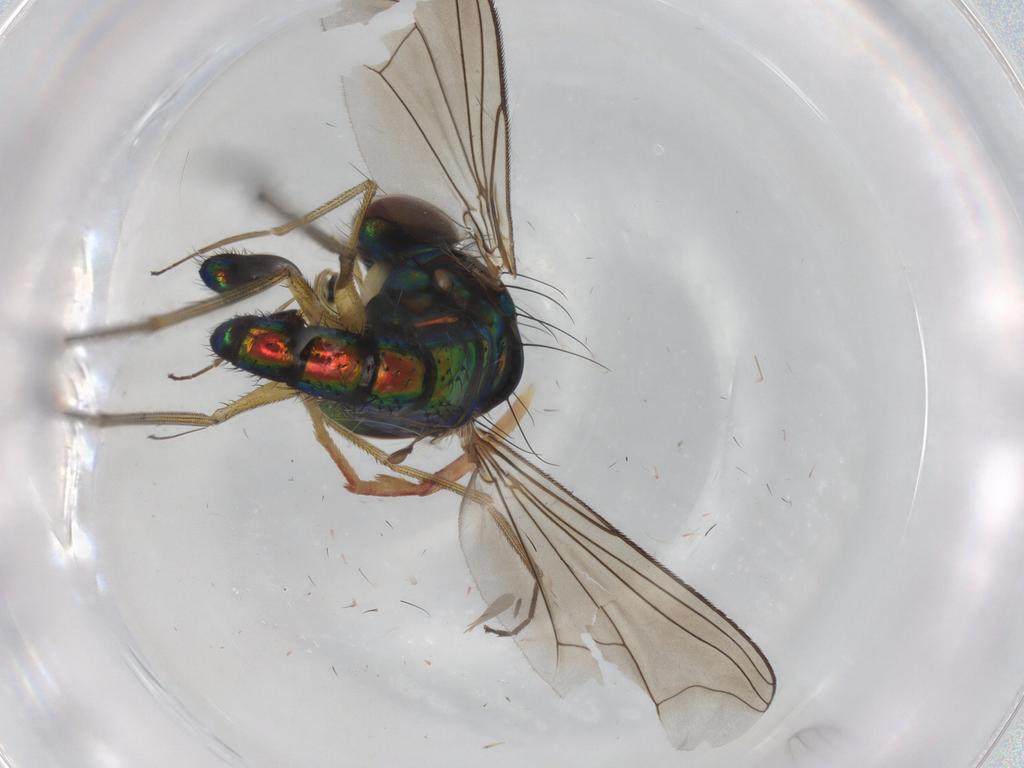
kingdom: Animalia
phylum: Arthropoda
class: Insecta
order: Diptera
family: Dolichopodidae
